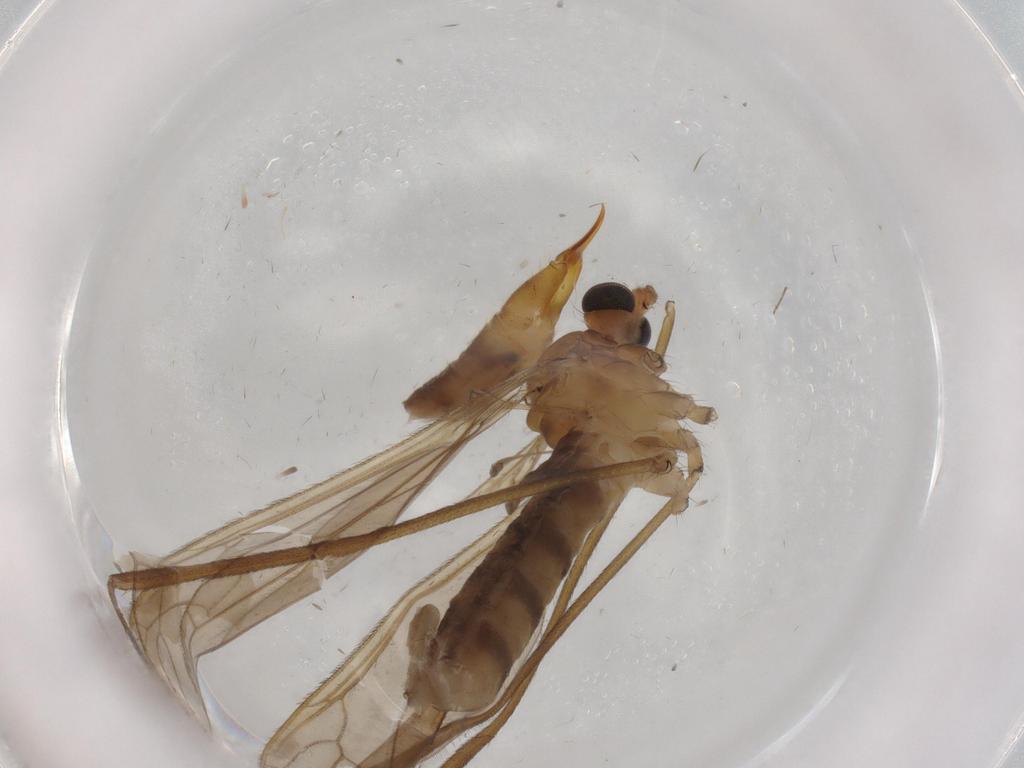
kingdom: Animalia
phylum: Arthropoda
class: Insecta
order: Diptera
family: Limoniidae
